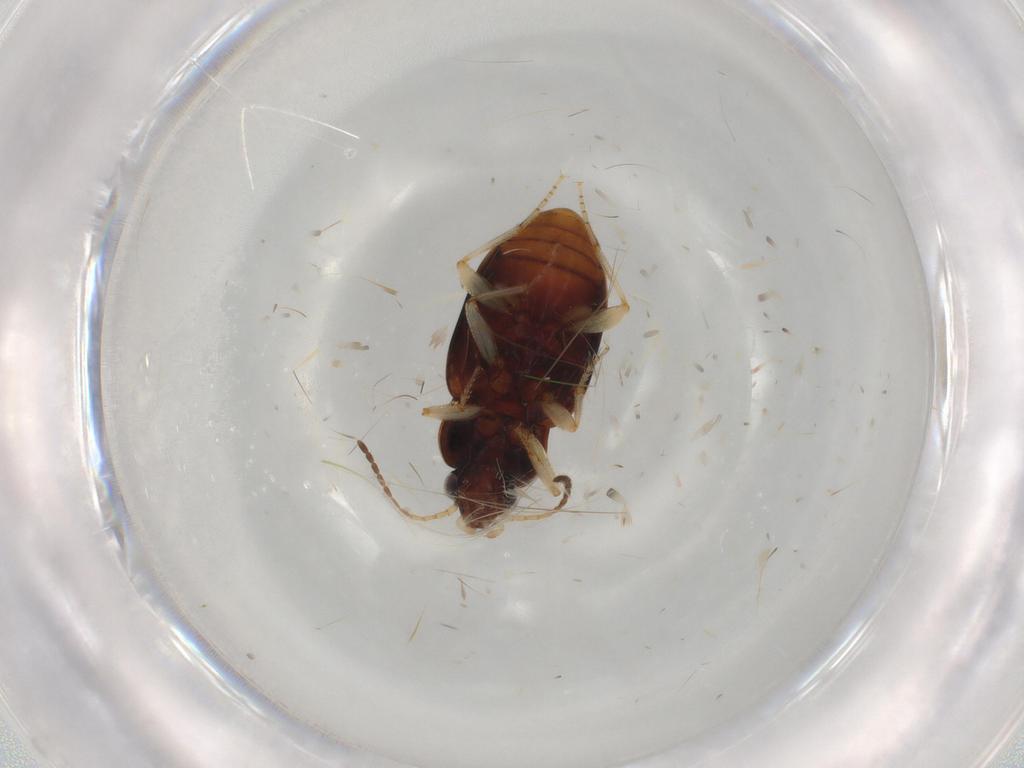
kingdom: Animalia
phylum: Arthropoda
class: Insecta
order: Coleoptera
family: Carabidae
